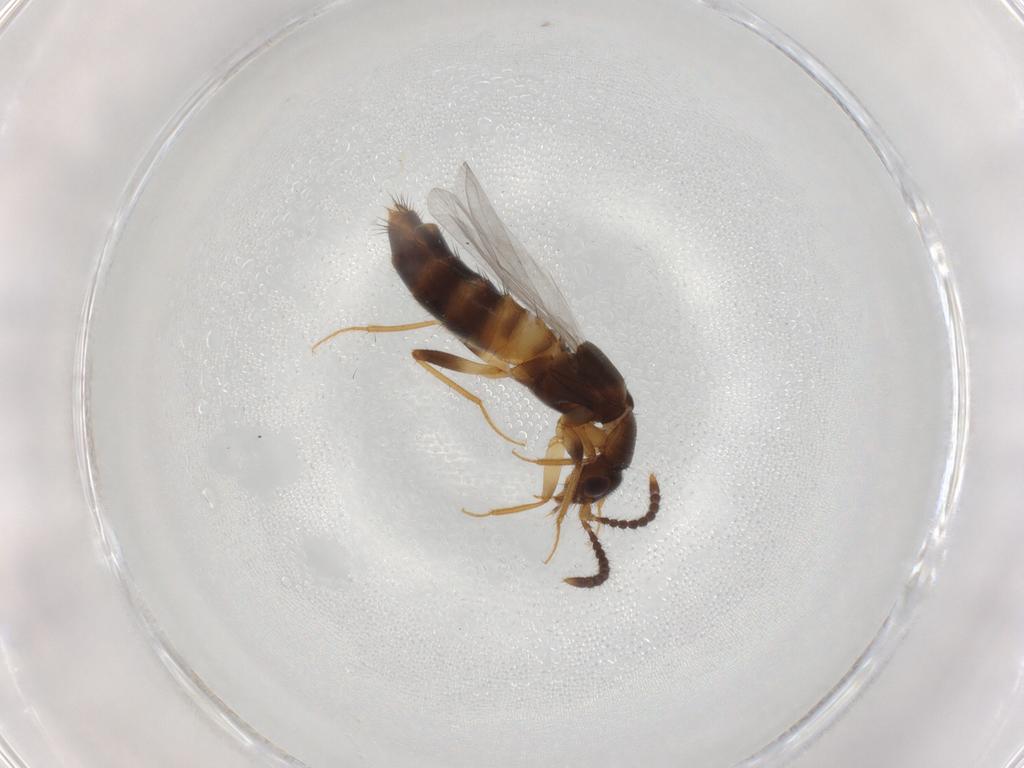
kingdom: Animalia
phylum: Arthropoda
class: Insecta
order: Coleoptera
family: Staphylinidae
